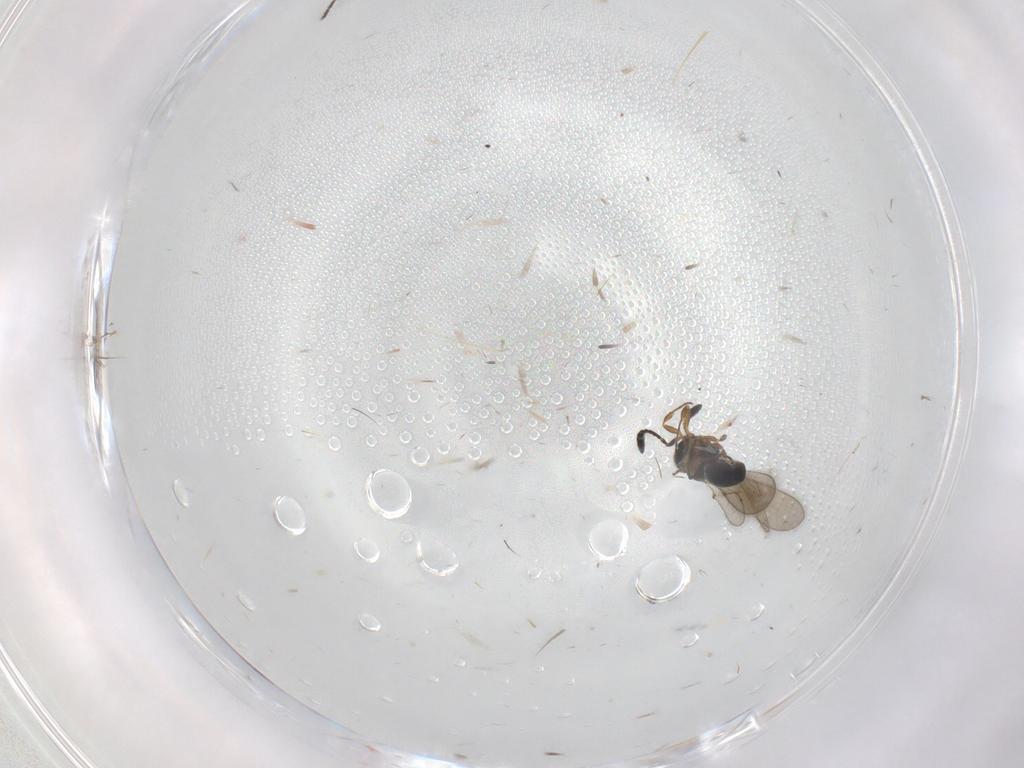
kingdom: Animalia
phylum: Arthropoda
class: Insecta
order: Hymenoptera
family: Scelionidae
